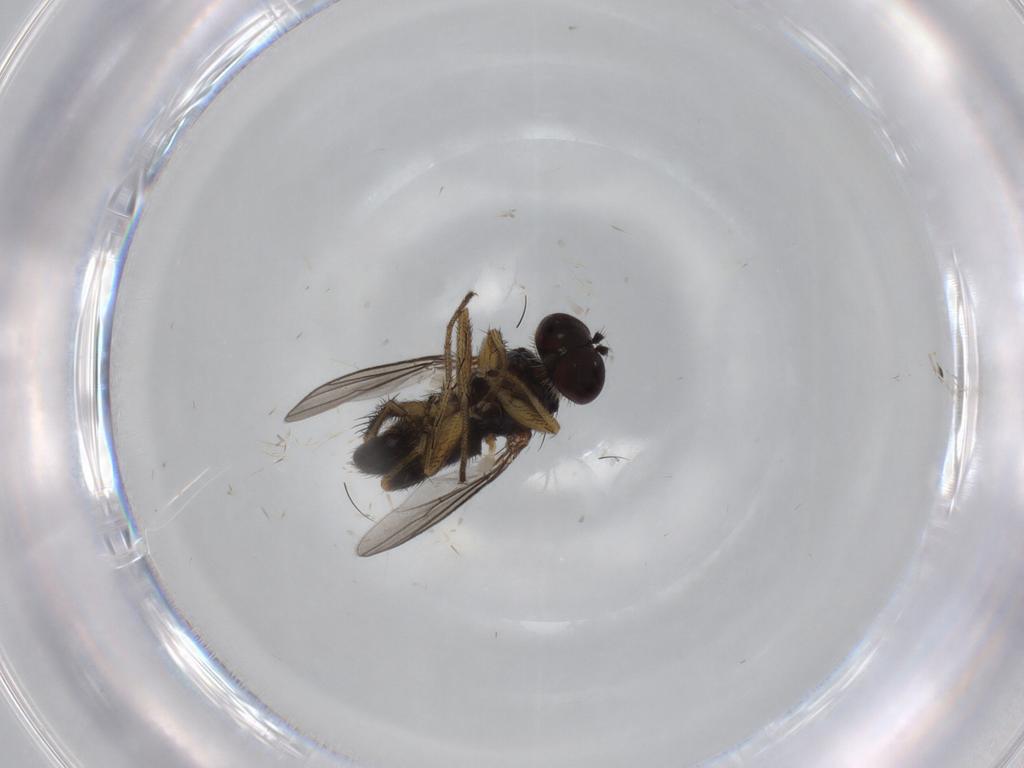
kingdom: Animalia
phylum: Arthropoda
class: Insecta
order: Diptera
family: Dolichopodidae
